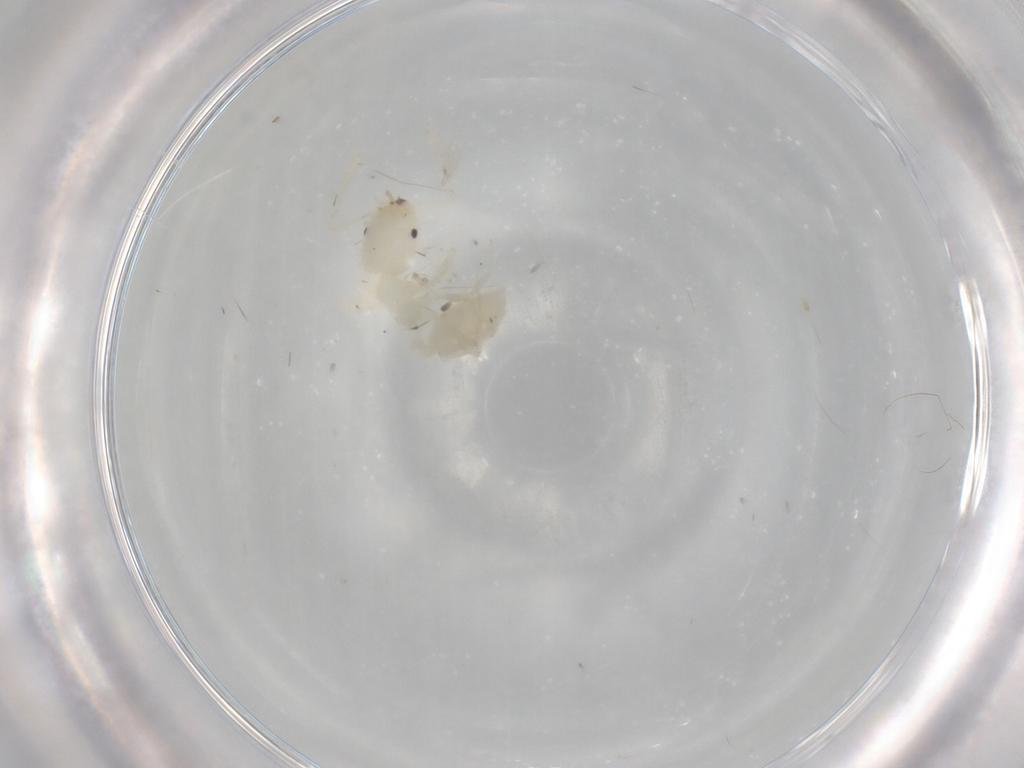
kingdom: Animalia
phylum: Arthropoda
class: Insecta
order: Hymenoptera
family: Formicidae
